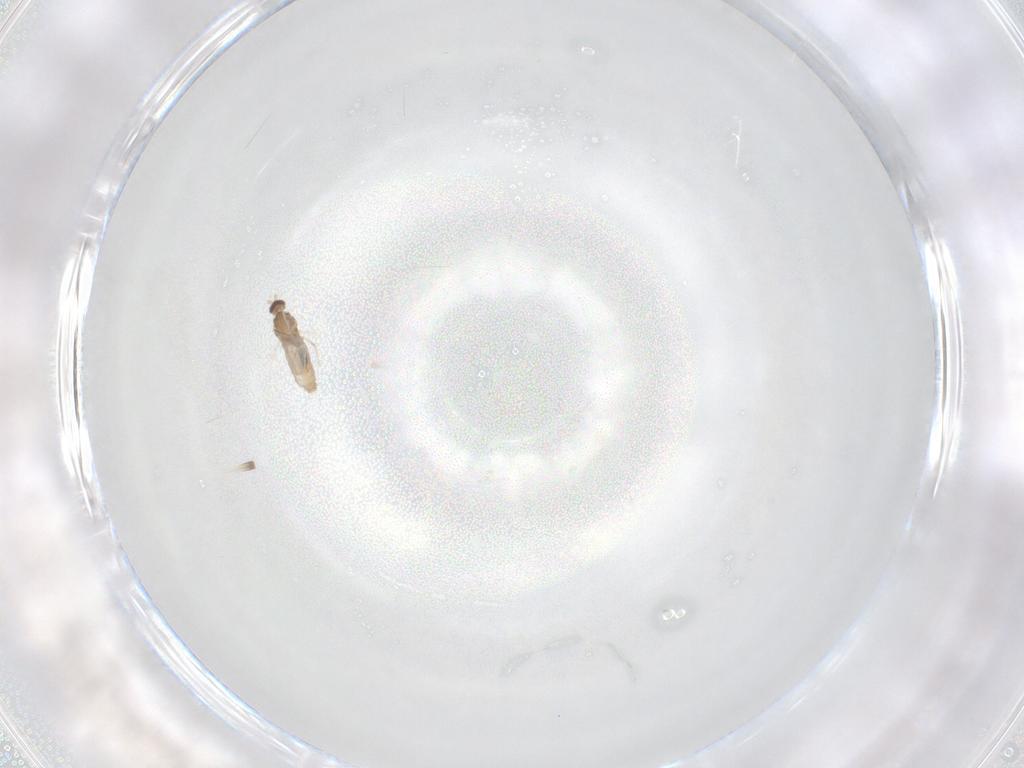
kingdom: Animalia
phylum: Arthropoda
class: Insecta
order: Diptera
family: Cecidomyiidae
